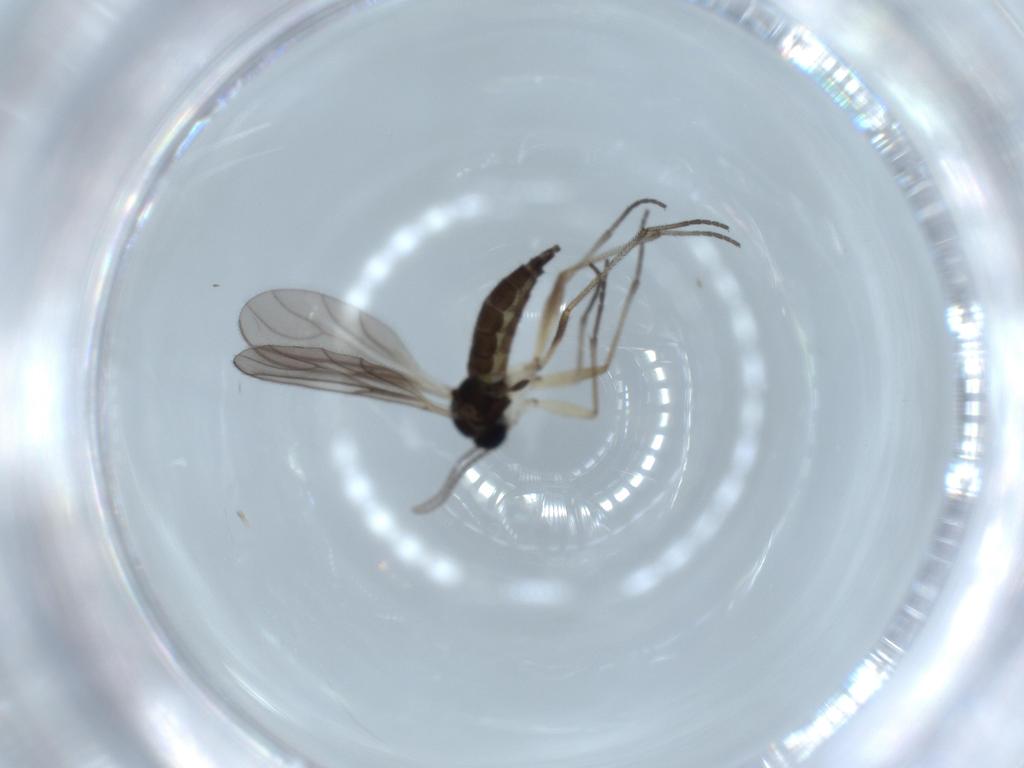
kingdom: Animalia
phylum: Arthropoda
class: Insecta
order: Diptera
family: Sciaridae
